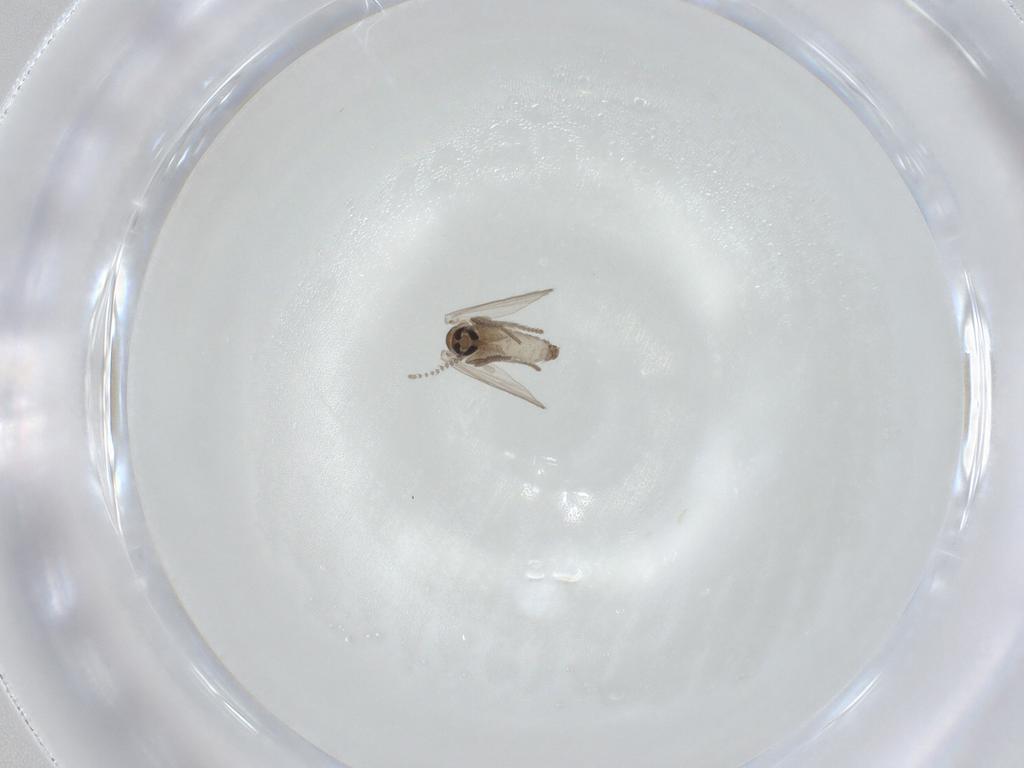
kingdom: Animalia
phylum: Arthropoda
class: Insecta
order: Diptera
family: Psychodidae
